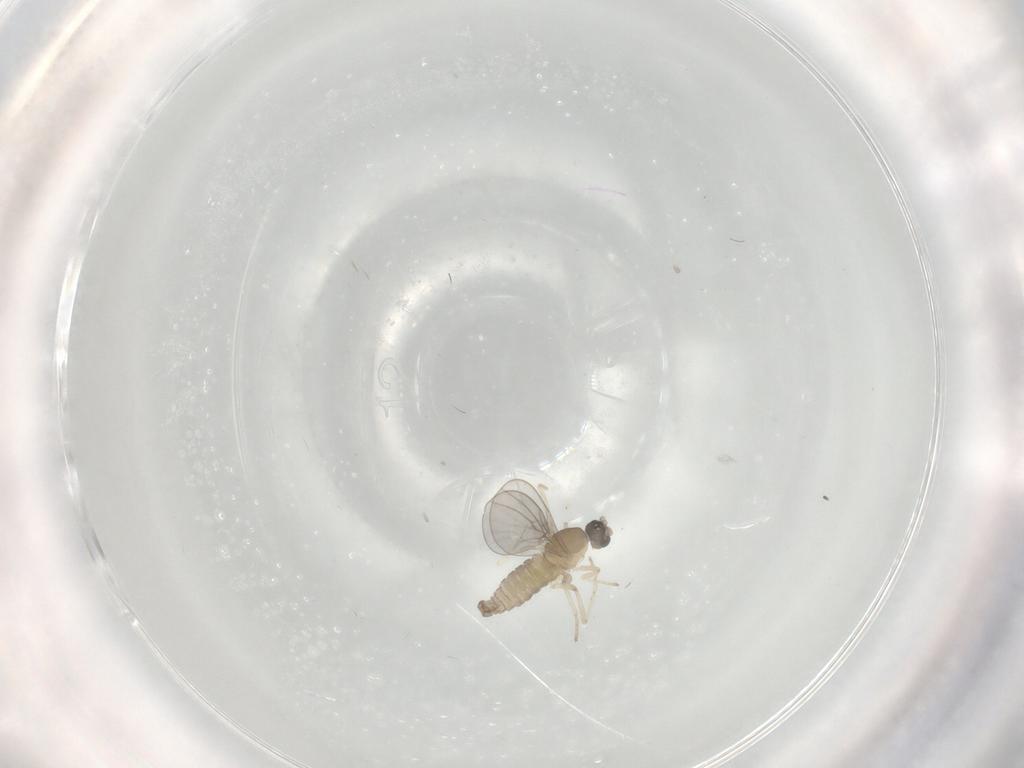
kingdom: Animalia
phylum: Arthropoda
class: Insecta
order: Diptera
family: Cecidomyiidae
